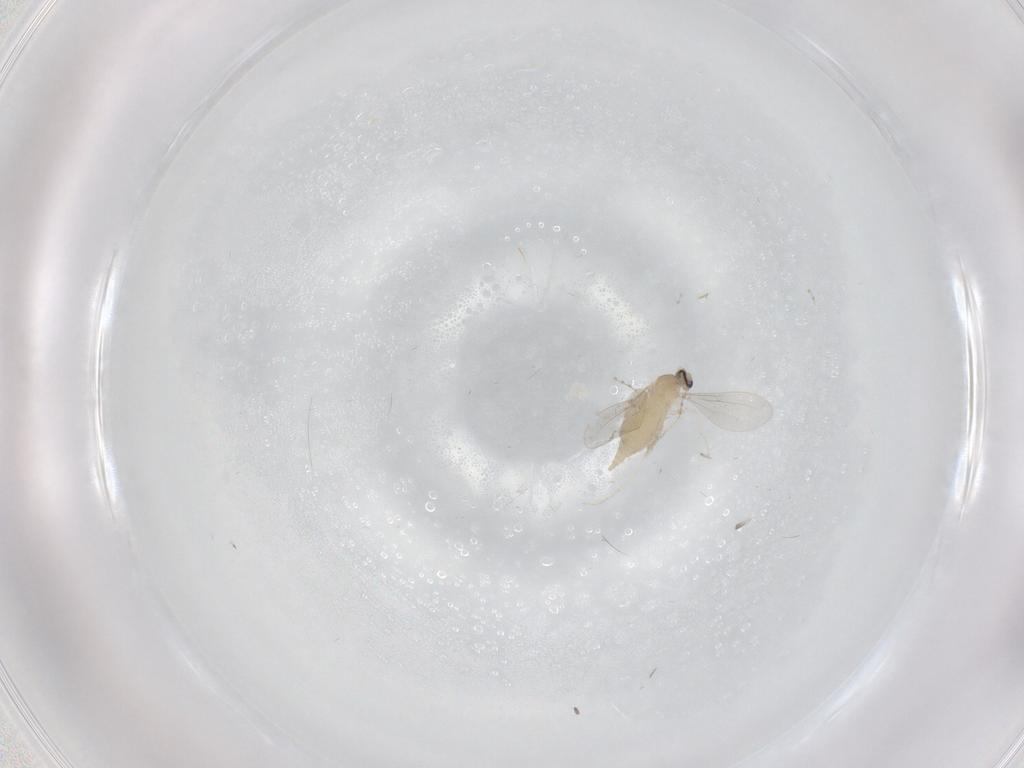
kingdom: Animalia
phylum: Arthropoda
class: Insecta
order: Diptera
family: Cecidomyiidae
